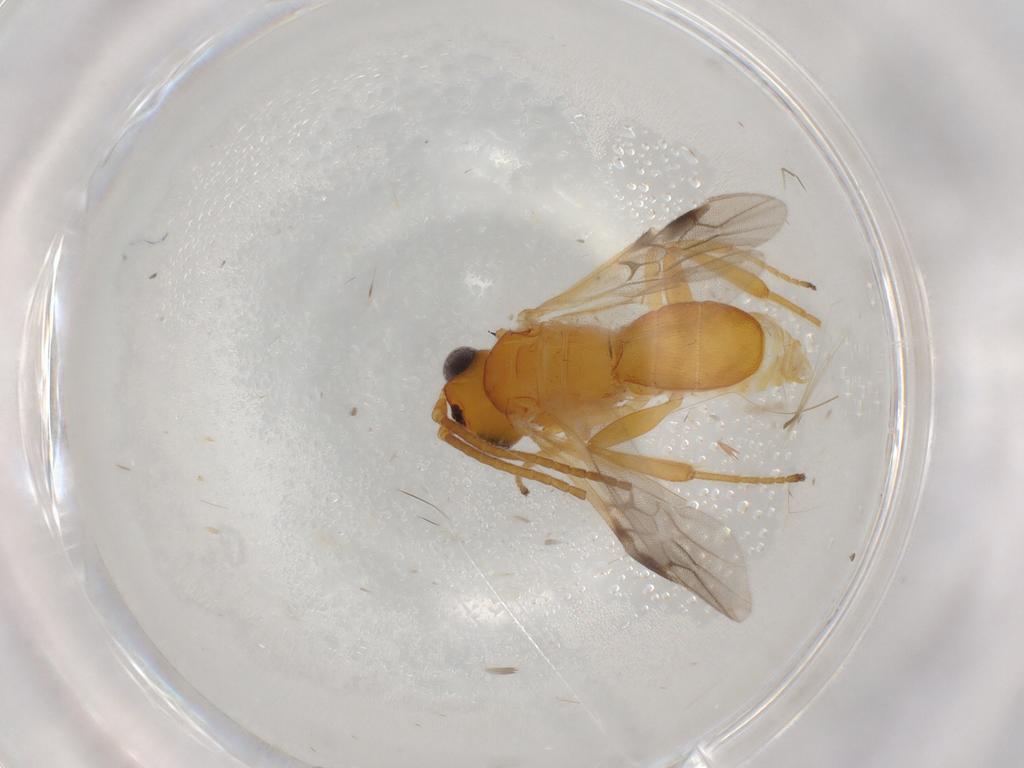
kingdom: Animalia
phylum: Arthropoda
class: Insecta
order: Hymenoptera
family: Braconidae
